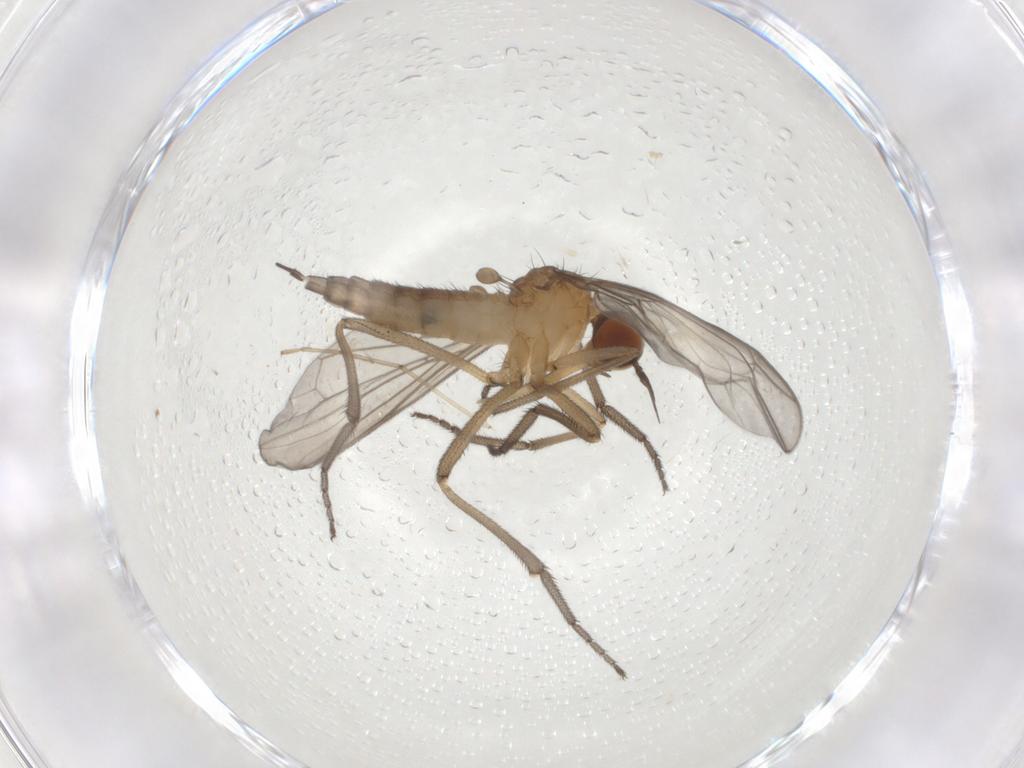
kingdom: Animalia
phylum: Arthropoda
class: Insecta
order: Diptera
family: Empididae
